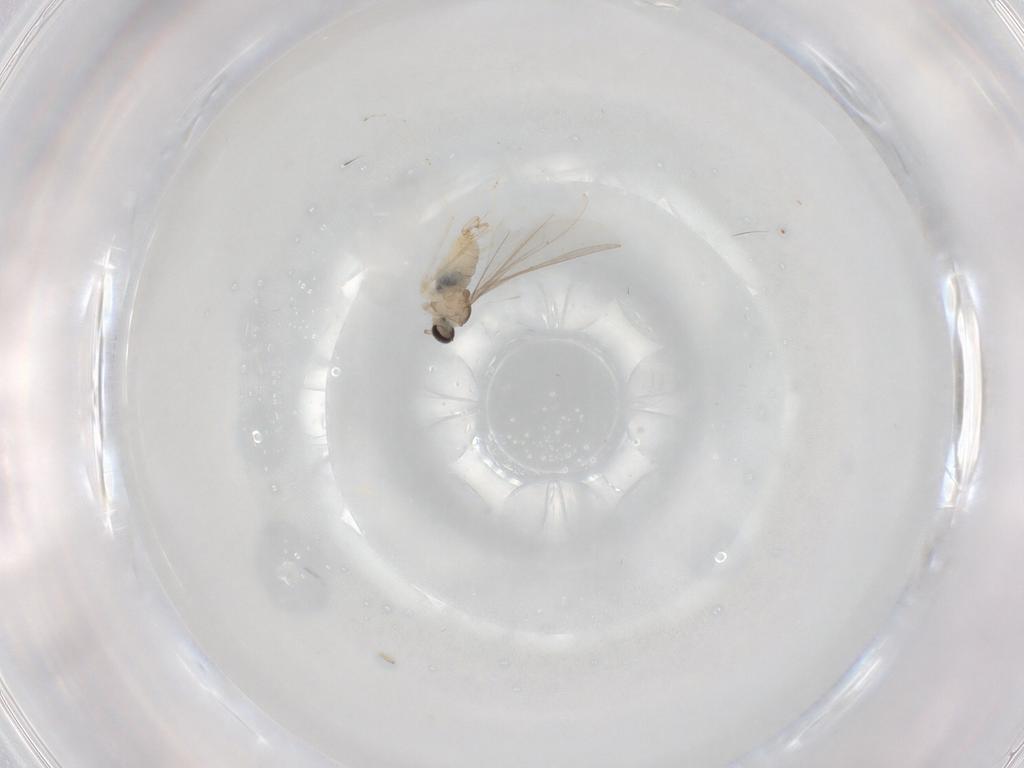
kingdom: Animalia
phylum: Arthropoda
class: Insecta
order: Diptera
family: Cecidomyiidae
